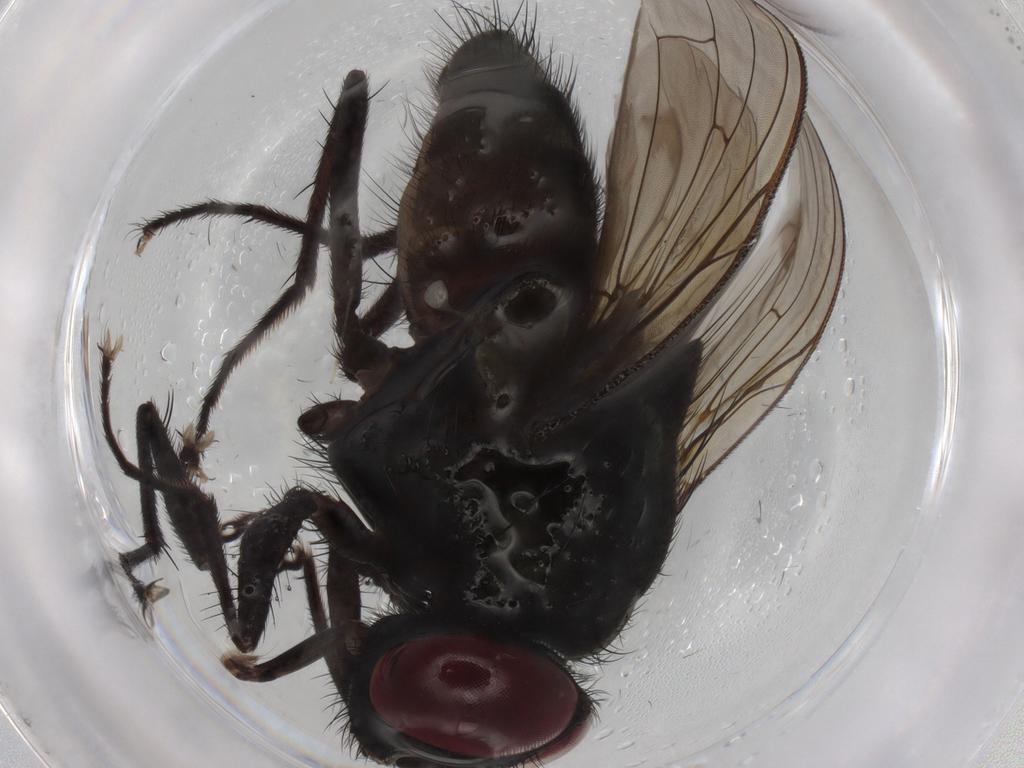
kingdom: Animalia
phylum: Arthropoda
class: Insecta
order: Diptera
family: Muscidae
